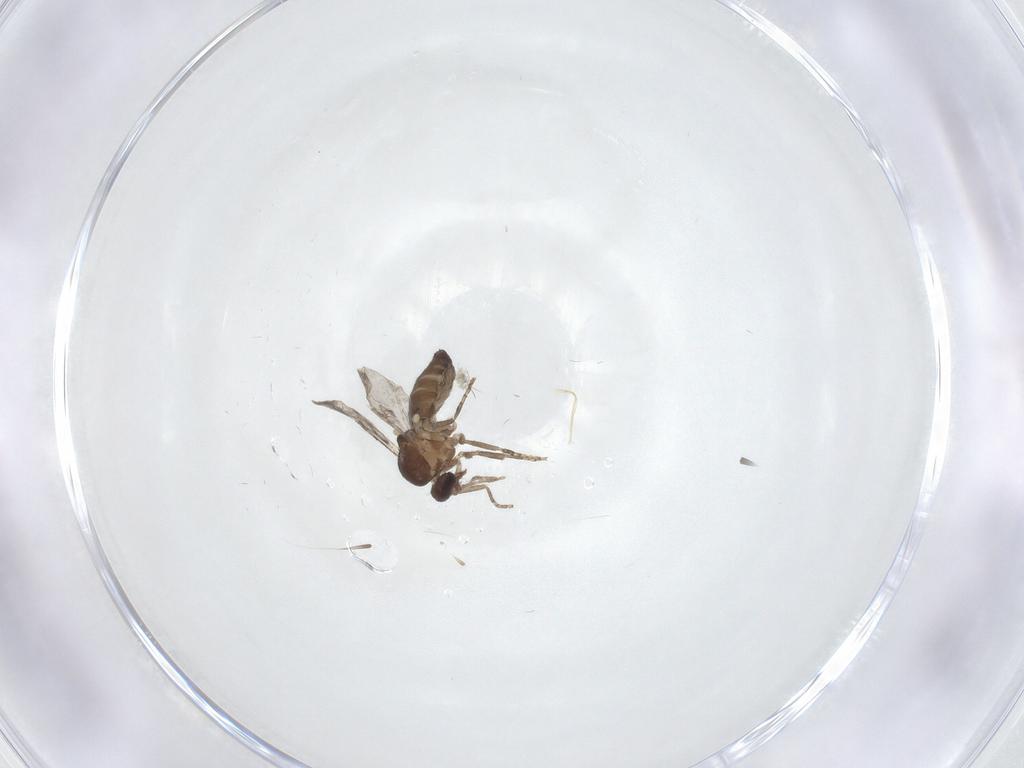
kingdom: Animalia
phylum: Arthropoda
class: Insecta
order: Diptera
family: Ceratopogonidae
